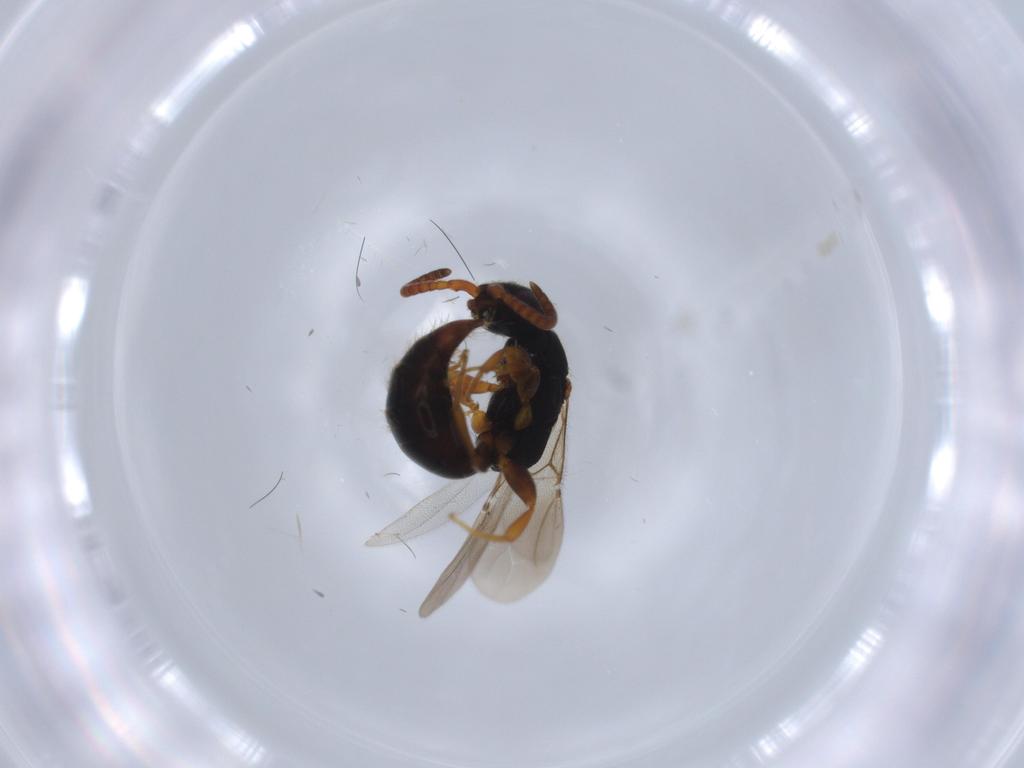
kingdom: Animalia
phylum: Arthropoda
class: Insecta
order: Hymenoptera
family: Bethylidae
